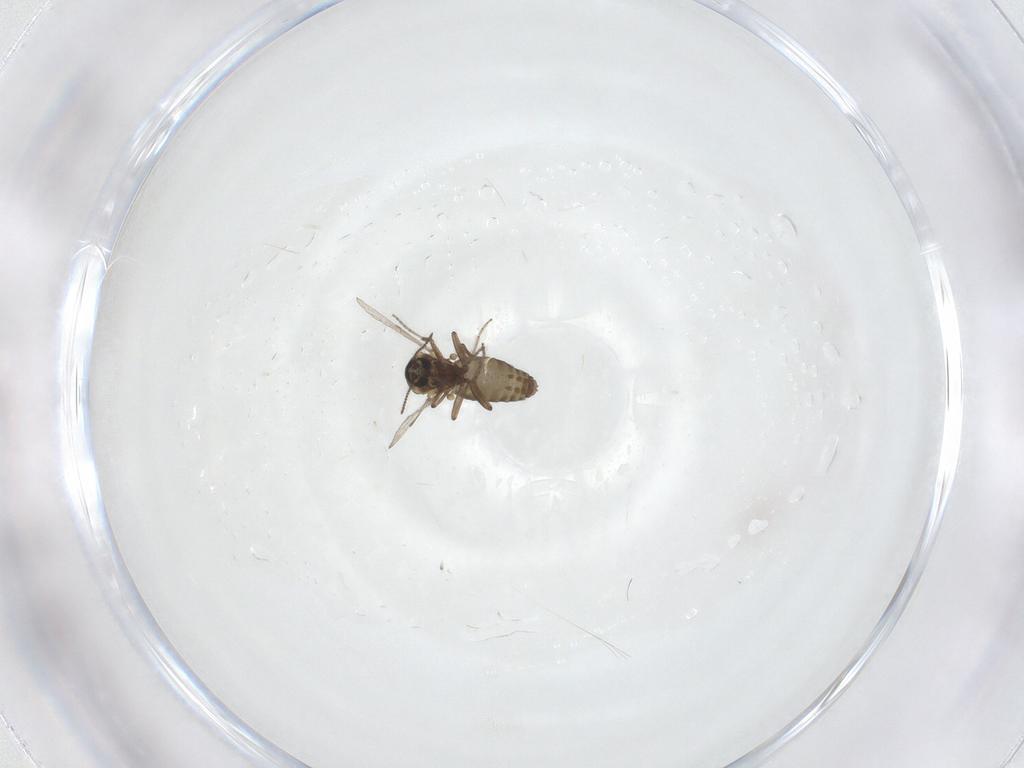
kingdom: Animalia
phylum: Arthropoda
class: Insecta
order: Diptera
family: Ceratopogonidae
